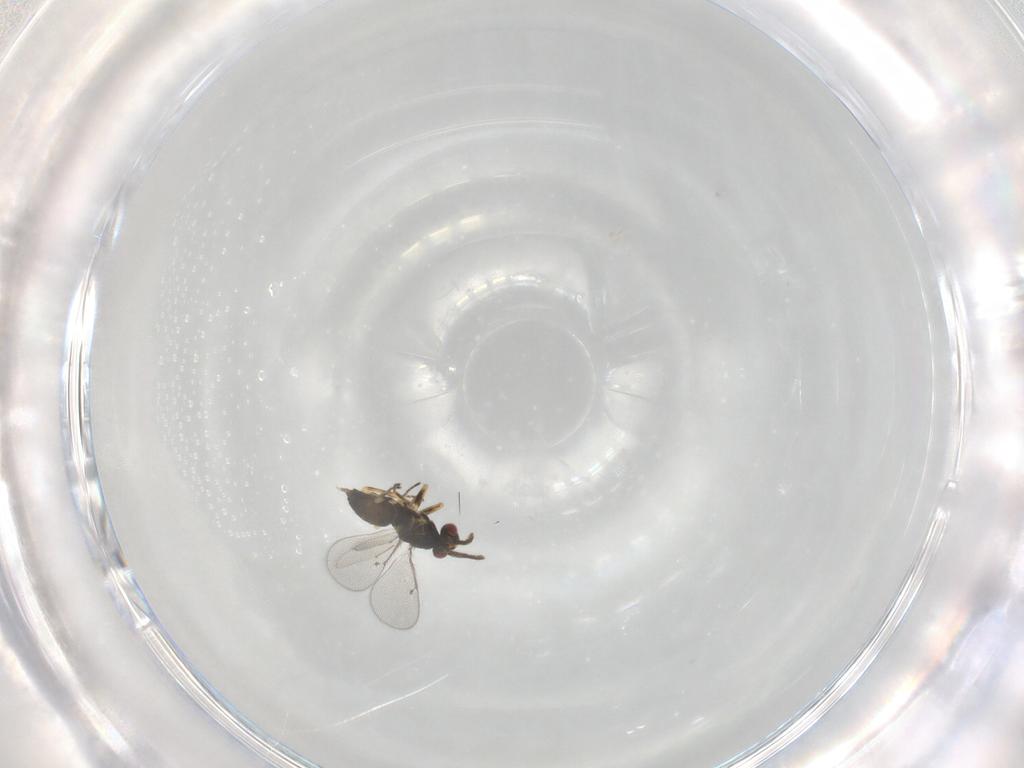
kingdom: Animalia
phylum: Arthropoda
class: Insecta
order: Hymenoptera
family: Eulophidae
